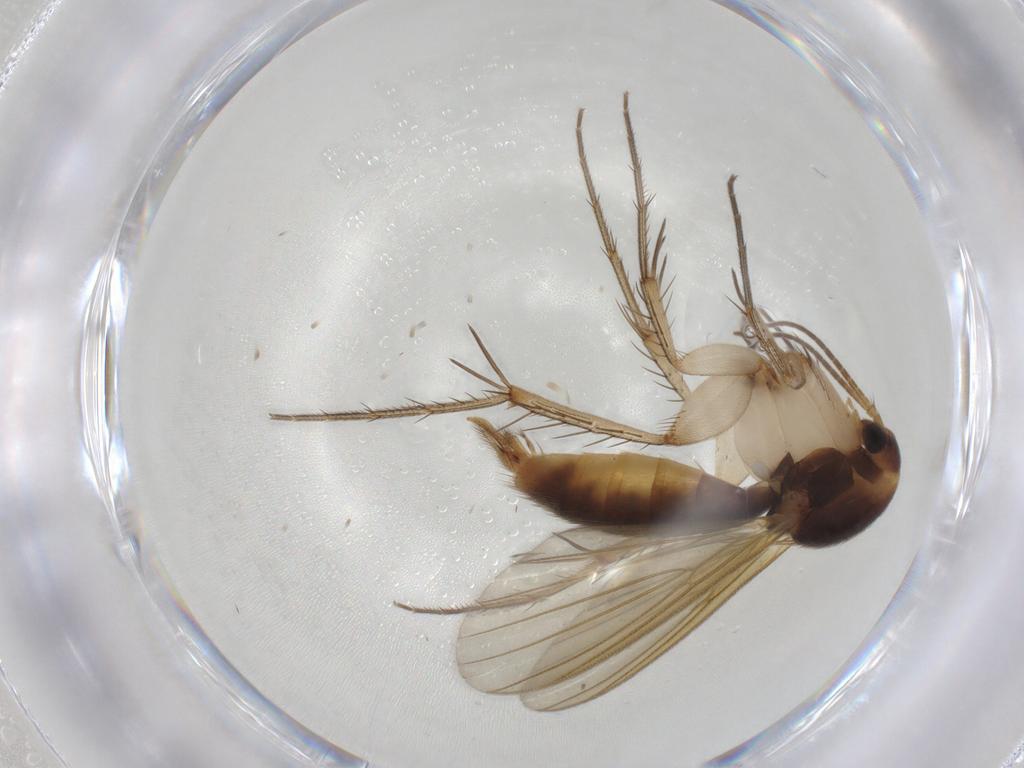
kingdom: Animalia
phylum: Arthropoda
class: Insecta
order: Diptera
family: Mycetophilidae
